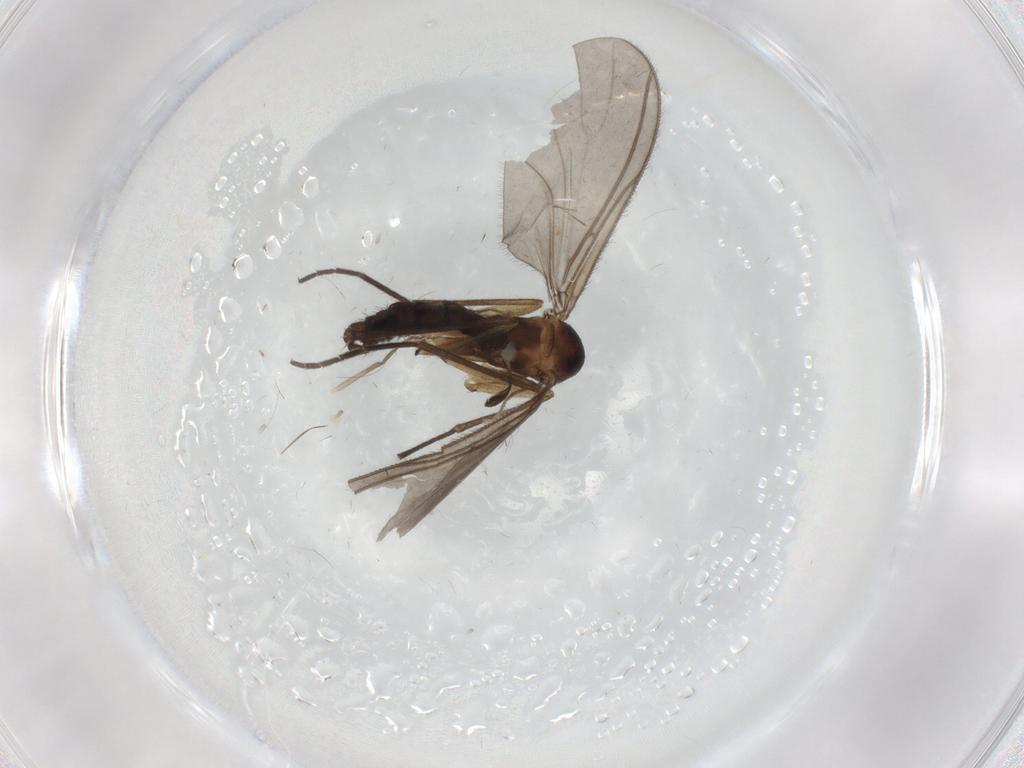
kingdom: Animalia
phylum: Arthropoda
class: Insecta
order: Diptera
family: Sciaridae
